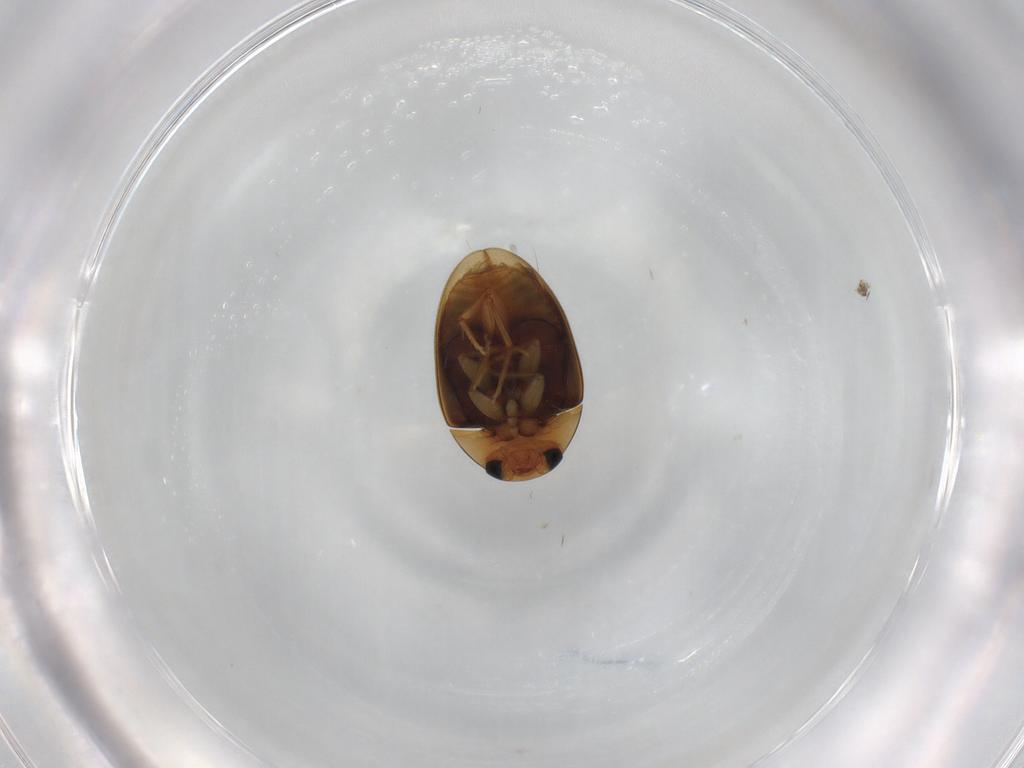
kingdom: Animalia
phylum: Arthropoda
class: Insecta
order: Coleoptera
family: Phalacridae
